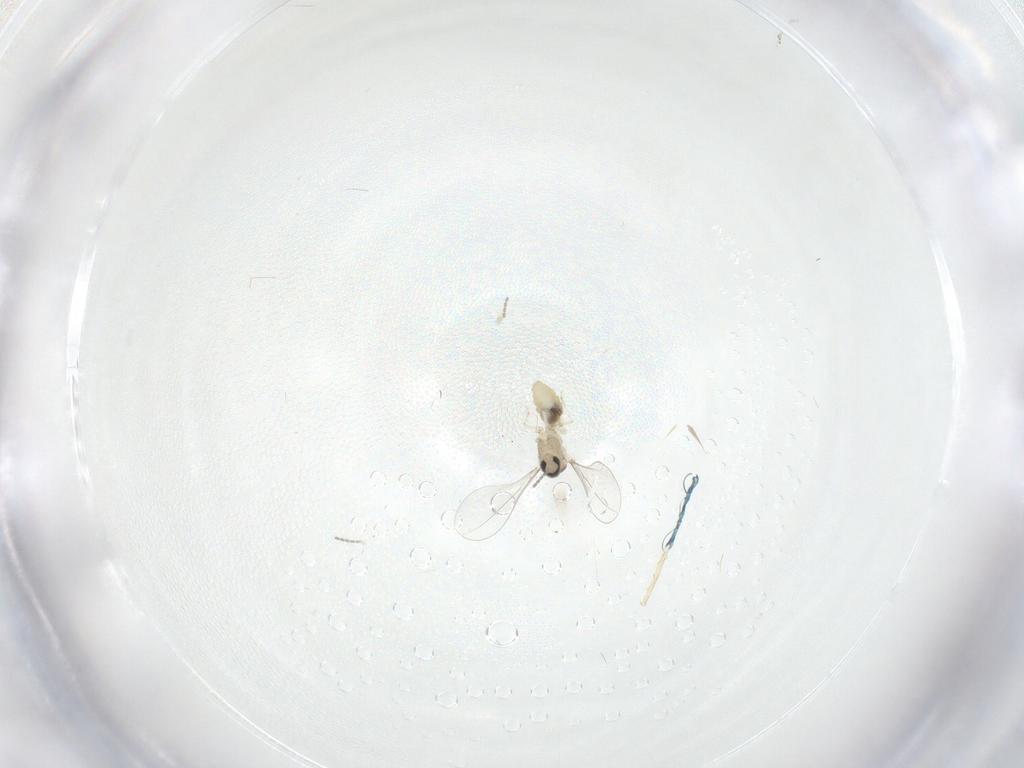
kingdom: Animalia
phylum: Arthropoda
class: Insecta
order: Diptera
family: Cecidomyiidae
